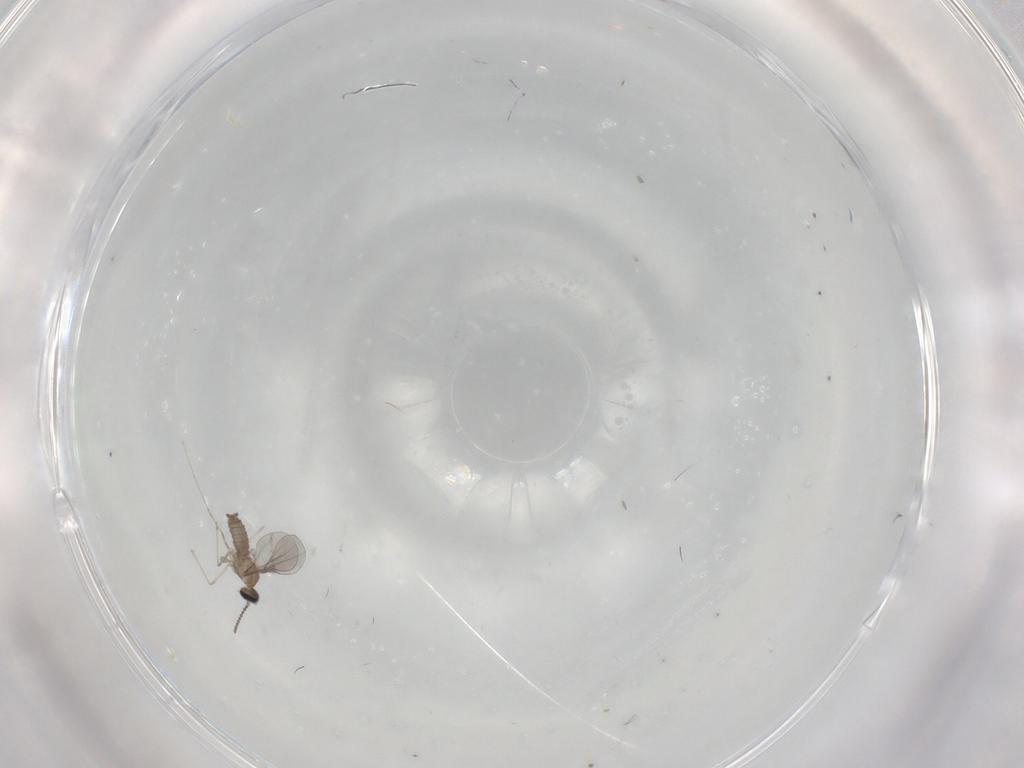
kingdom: Animalia
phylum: Arthropoda
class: Insecta
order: Diptera
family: Cecidomyiidae
